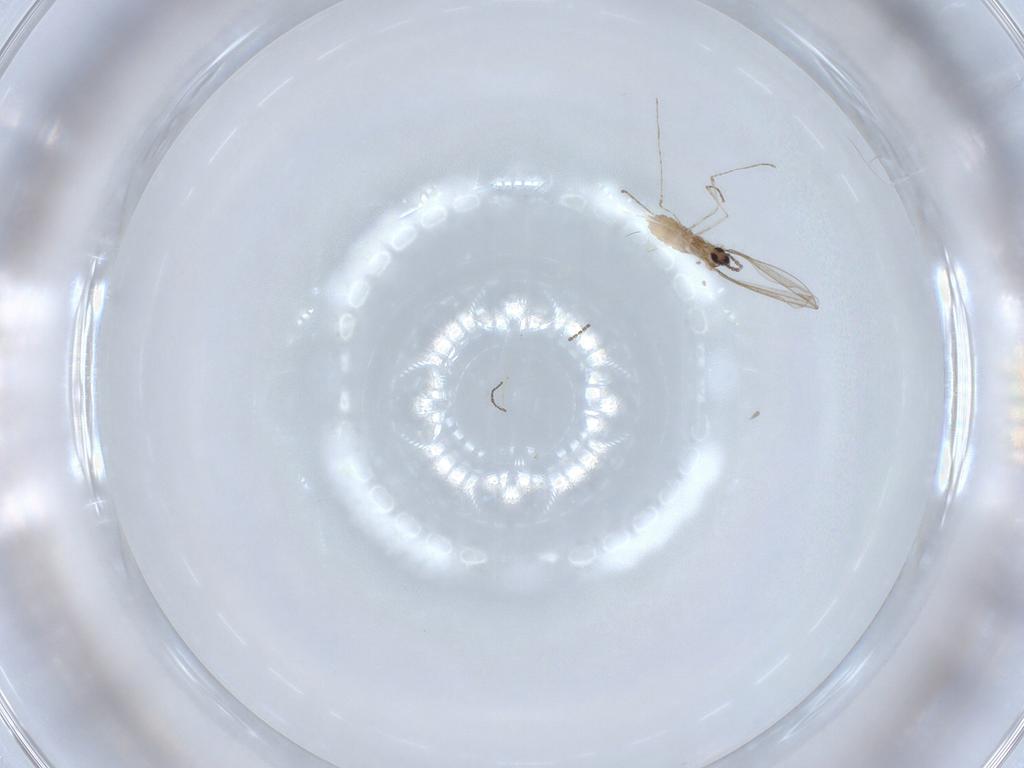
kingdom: Animalia
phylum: Arthropoda
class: Insecta
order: Diptera
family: Cecidomyiidae
